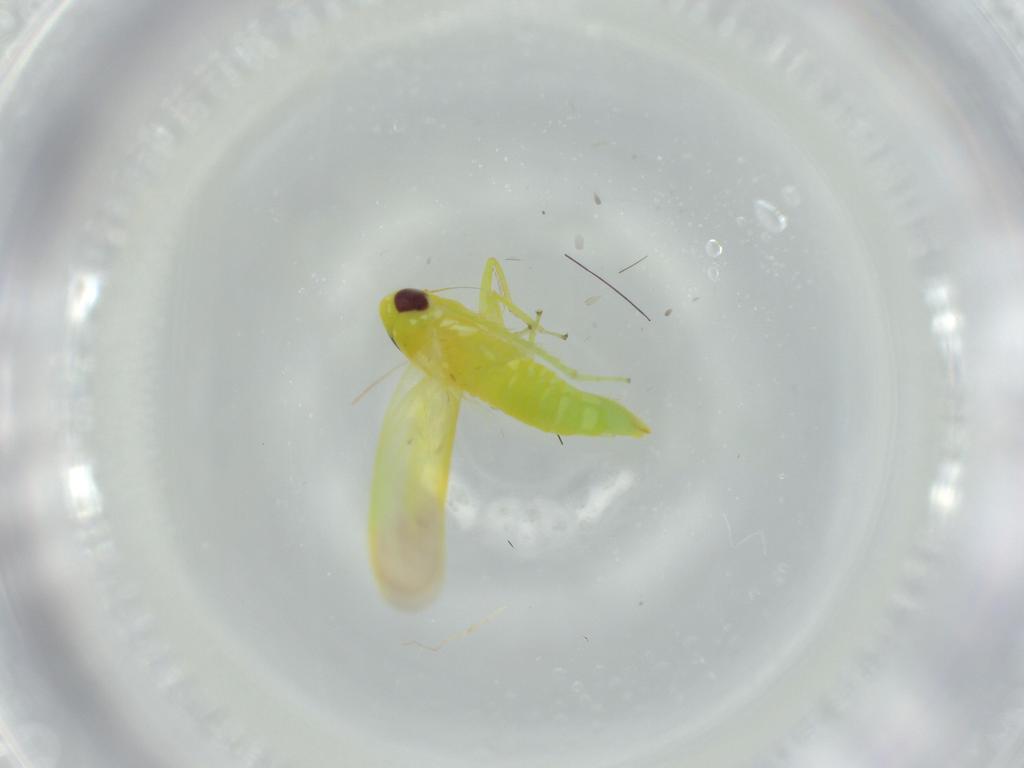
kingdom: Animalia
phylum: Arthropoda
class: Insecta
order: Hemiptera
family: Cicadellidae
